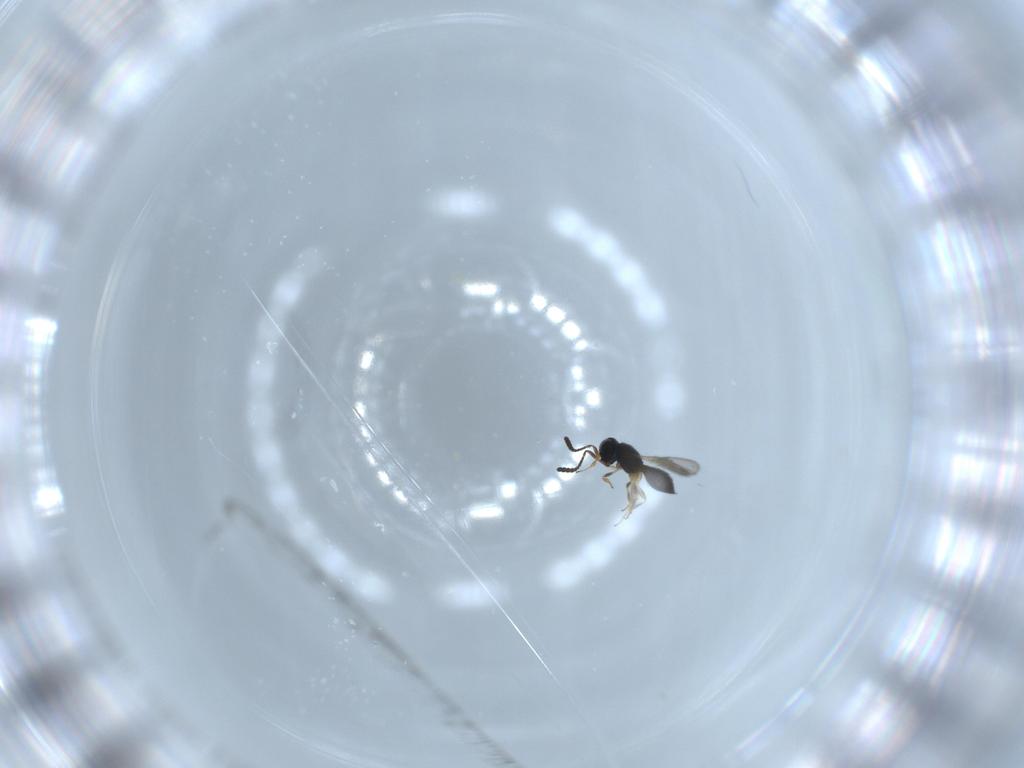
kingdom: Animalia
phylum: Arthropoda
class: Insecta
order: Hymenoptera
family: Scelionidae
